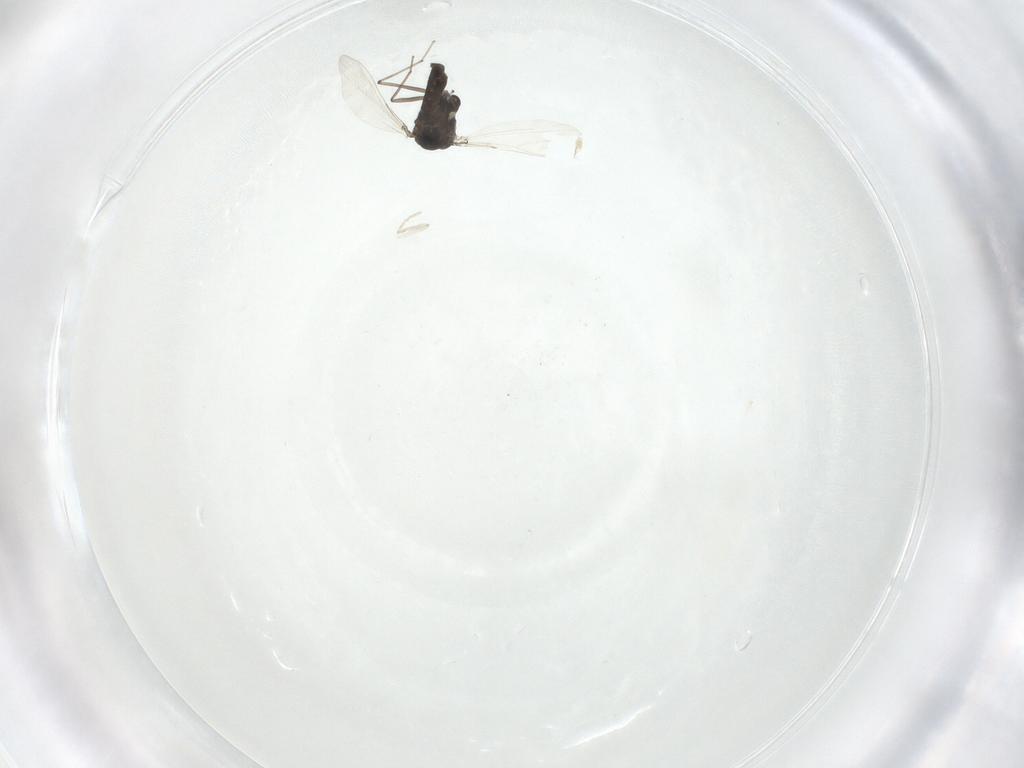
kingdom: Animalia
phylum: Arthropoda
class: Insecta
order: Diptera
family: Chironomidae
